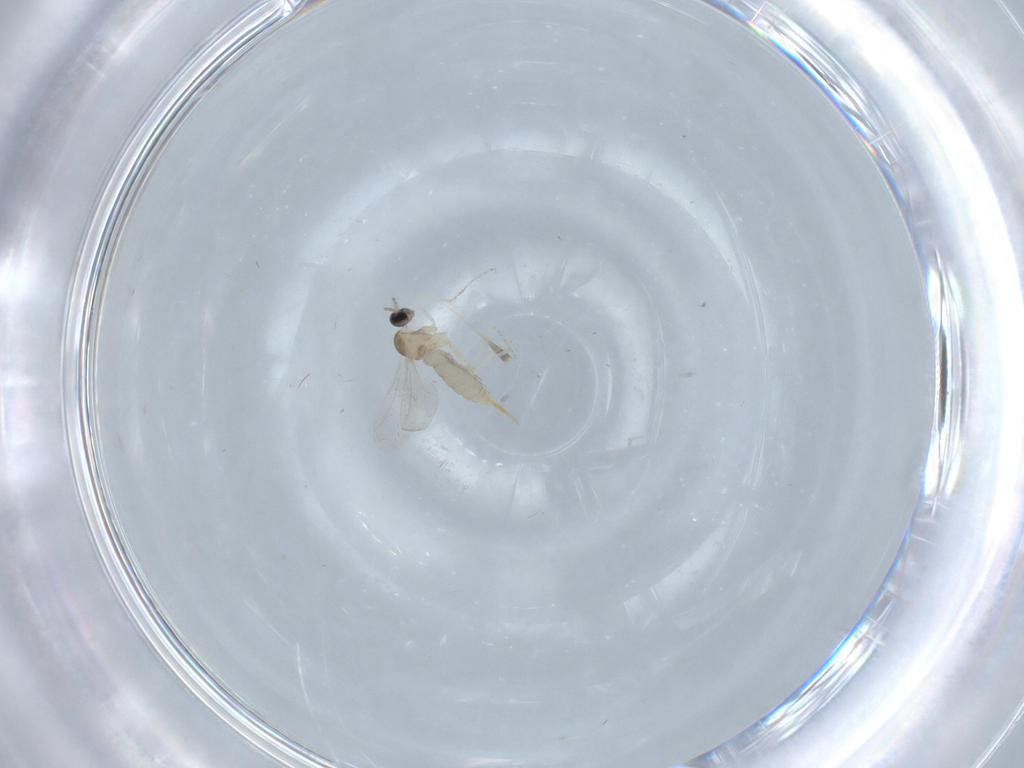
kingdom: Animalia
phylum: Arthropoda
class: Insecta
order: Diptera
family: Cecidomyiidae
